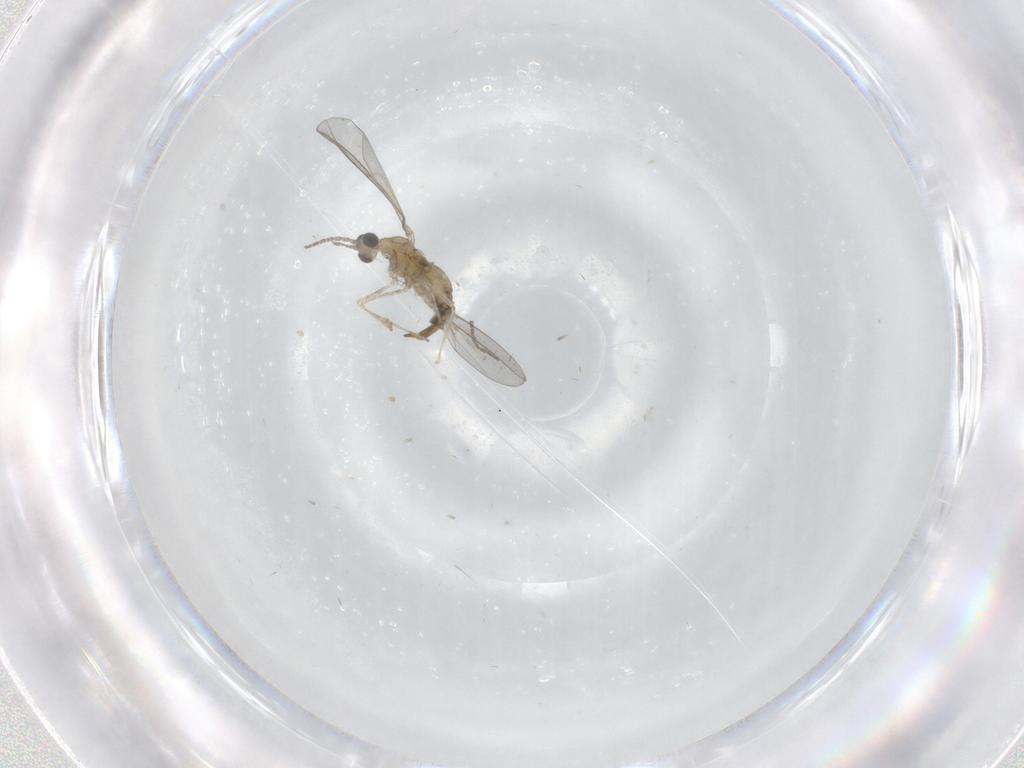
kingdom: Animalia
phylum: Arthropoda
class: Insecta
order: Diptera
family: Cecidomyiidae
